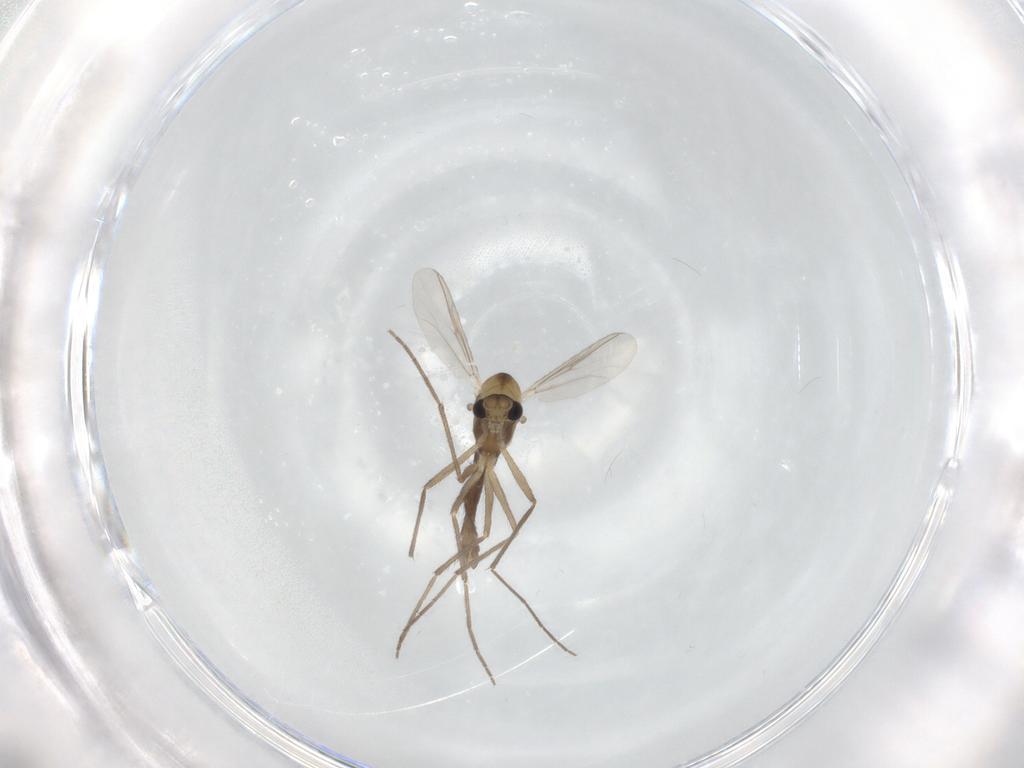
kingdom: Animalia
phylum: Arthropoda
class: Insecta
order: Diptera
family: Chironomidae
